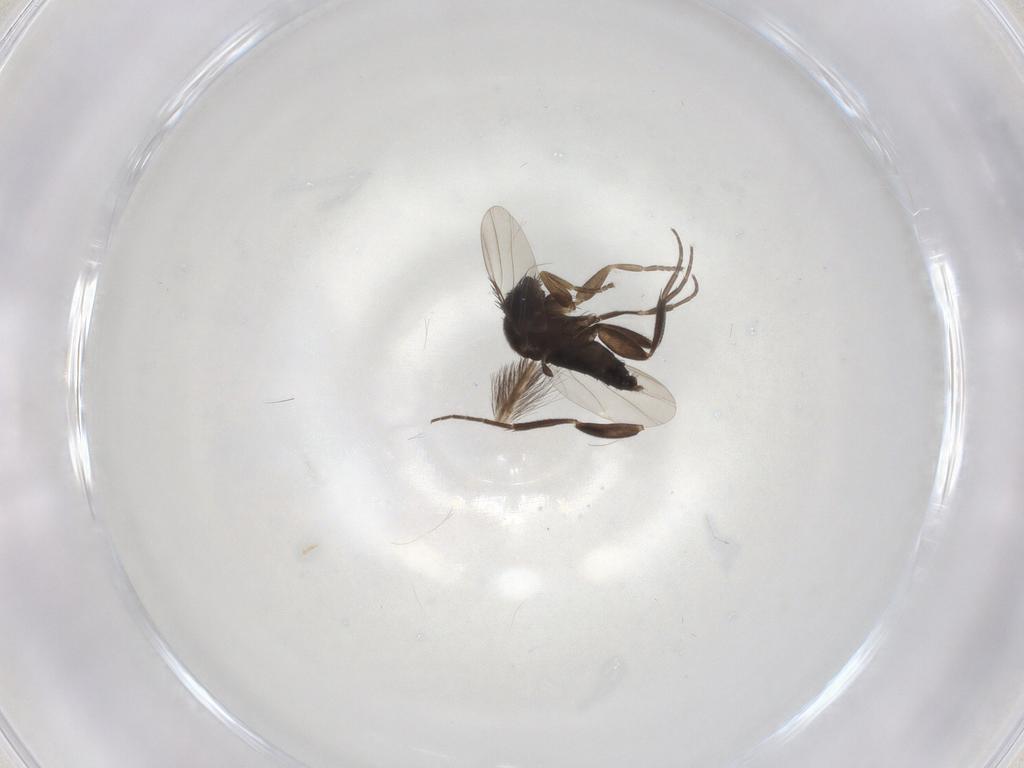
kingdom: Animalia
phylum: Arthropoda
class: Insecta
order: Diptera
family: Phoridae
